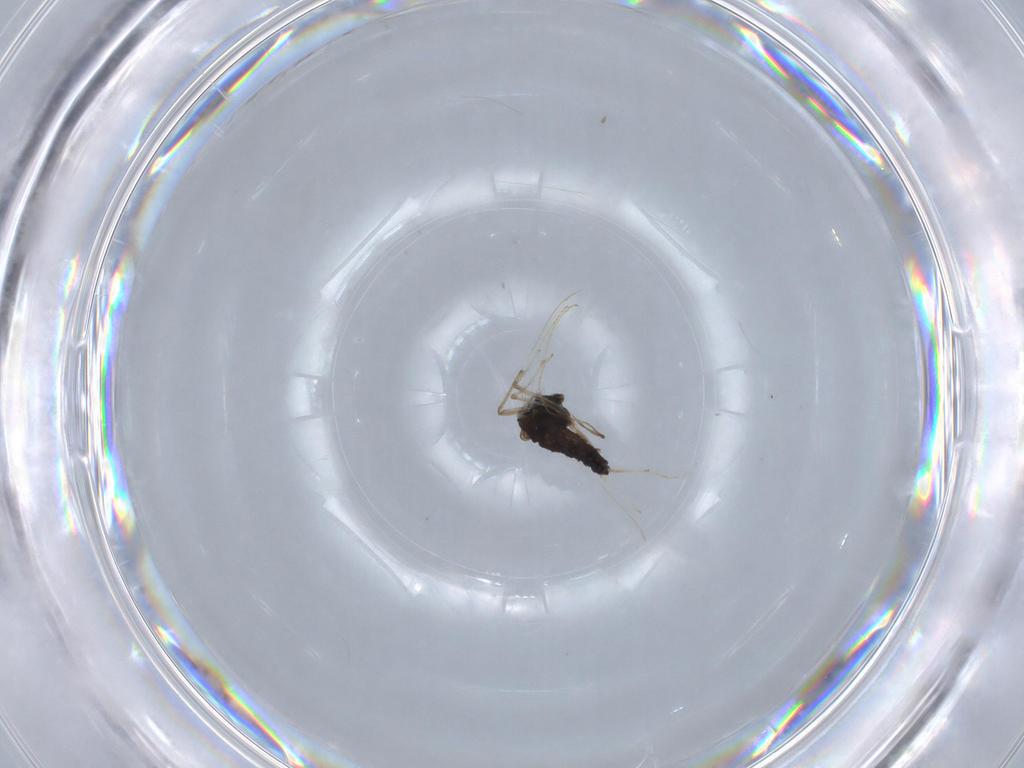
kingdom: Animalia
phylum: Arthropoda
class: Insecta
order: Diptera
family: Chironomidae
